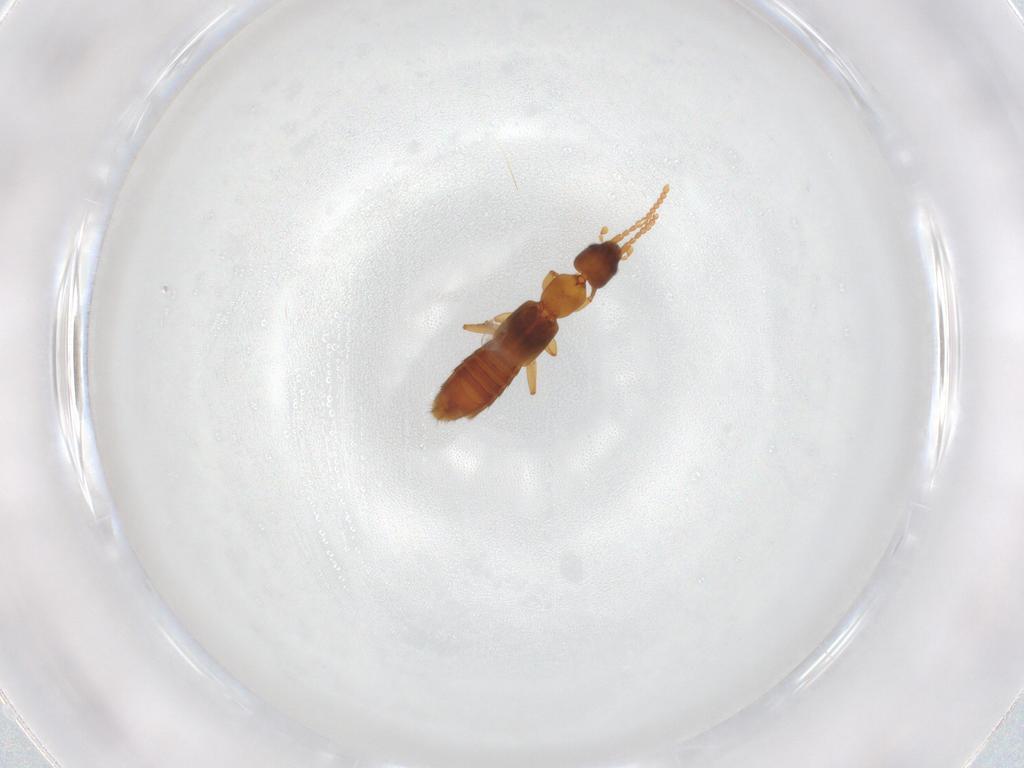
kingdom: Animalia
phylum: Arthropoda
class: Insecta
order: Coleoptera
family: Staphylinidae
